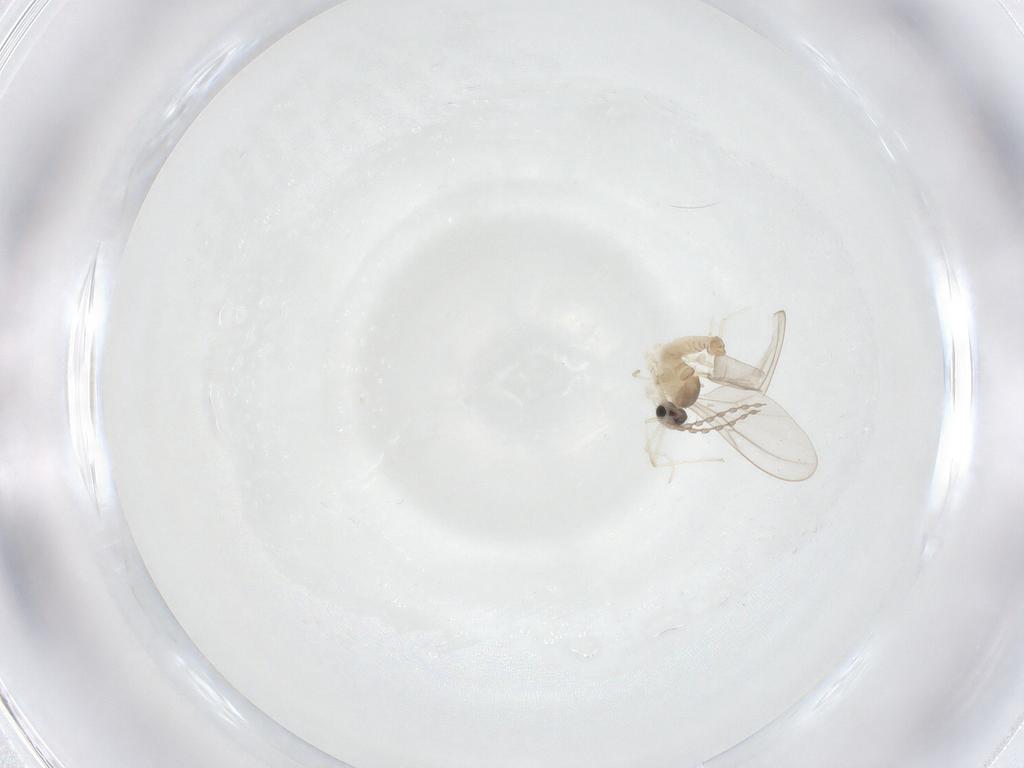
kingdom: Animalia
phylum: Arthropoda
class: Insecta
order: Diptera
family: Cecidomyiidae
